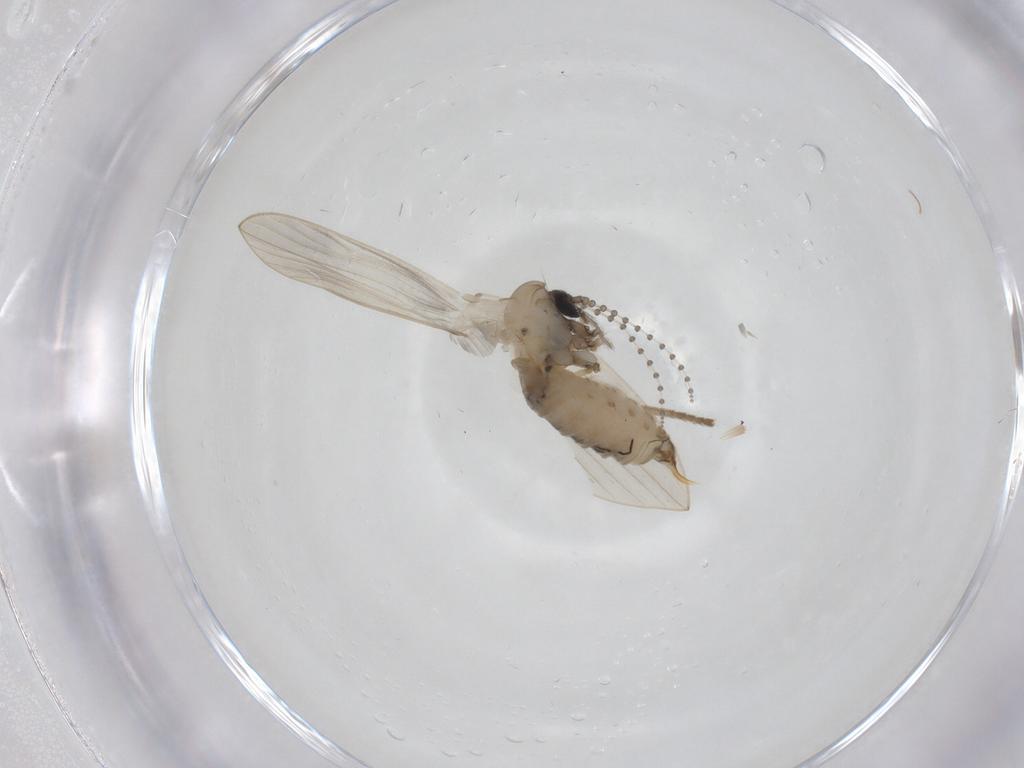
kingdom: Animalia
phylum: Arthropoda
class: Insecta
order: Diptera
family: Psychodidae
